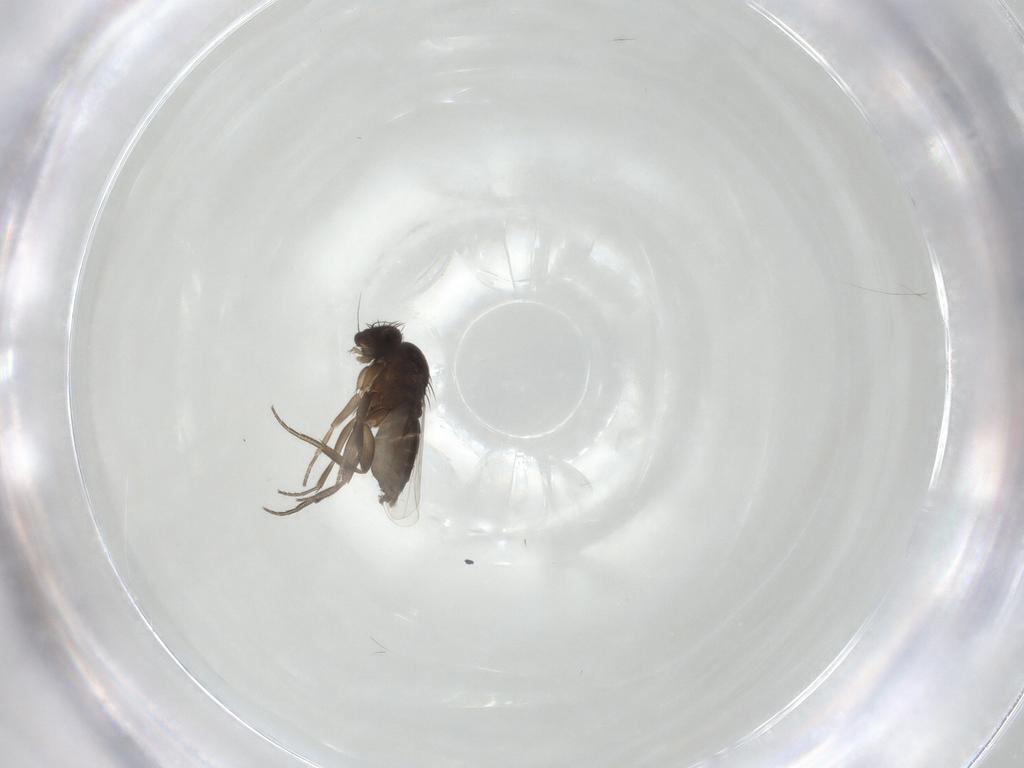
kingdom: Animalia
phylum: Arthropoda
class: Insecta
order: Diptera
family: Phoridae
